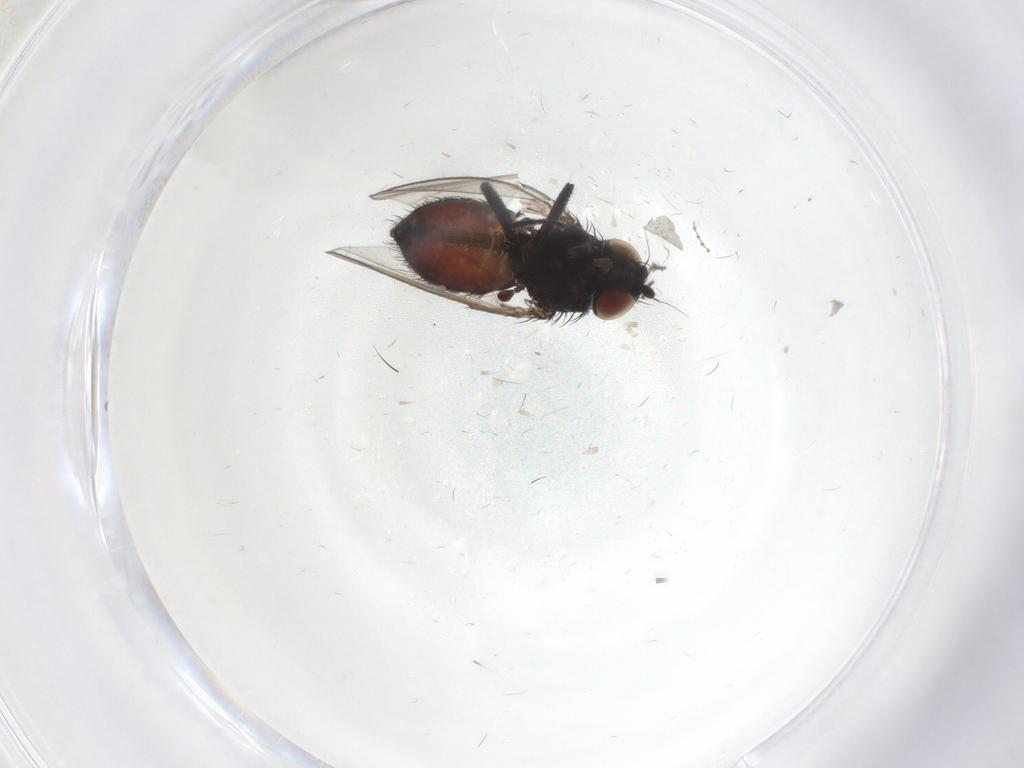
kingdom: Animalia
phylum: Arthropoda
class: Insecta
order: Diptera
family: Milichiidae
